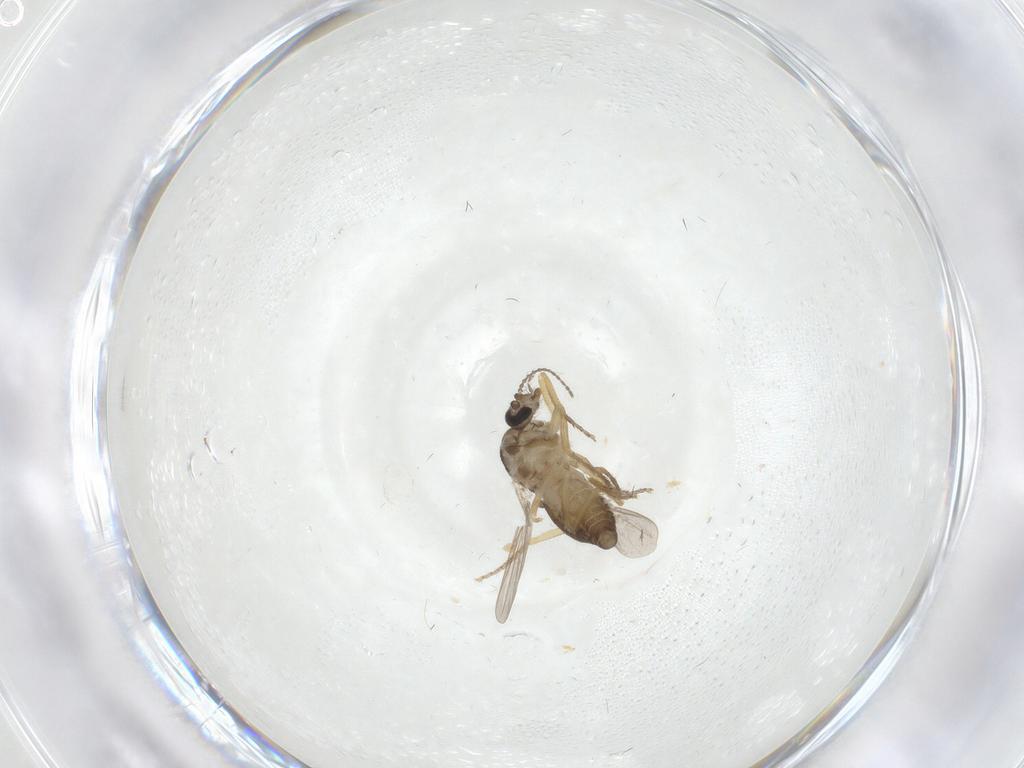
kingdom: Animalia
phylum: Arthropoda
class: Insecta
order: Diptera
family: Ceratopogonidae
